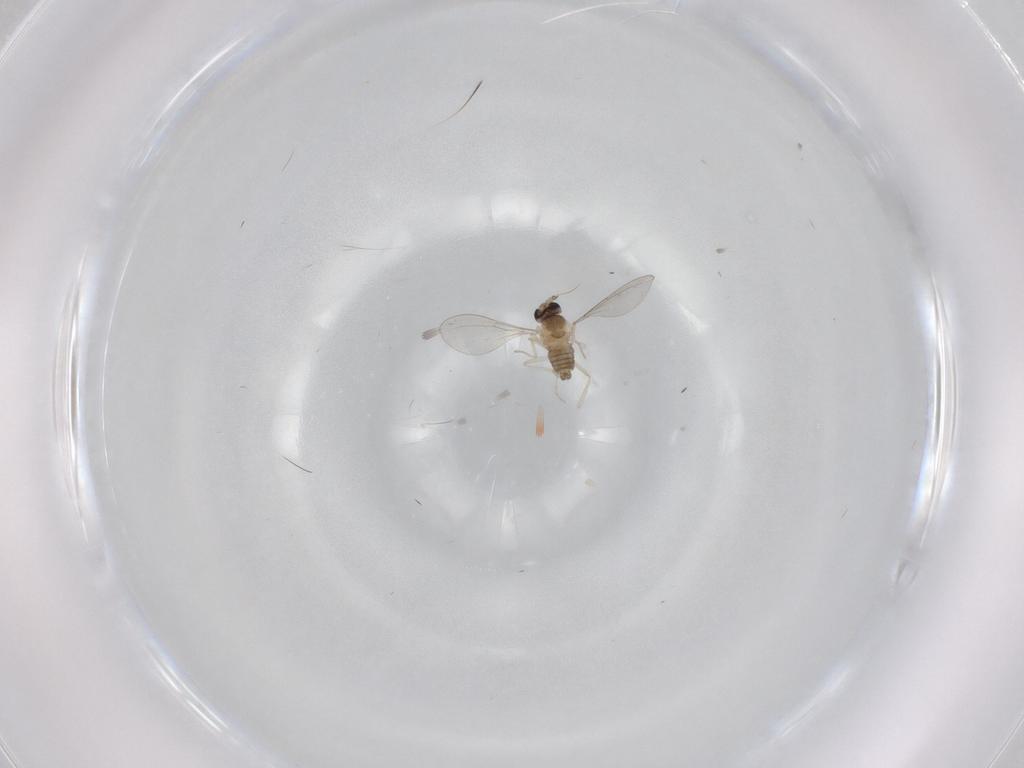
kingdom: Animalia
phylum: Arthropoda
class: Insecta
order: Diptera
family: Cecidomyiidae
